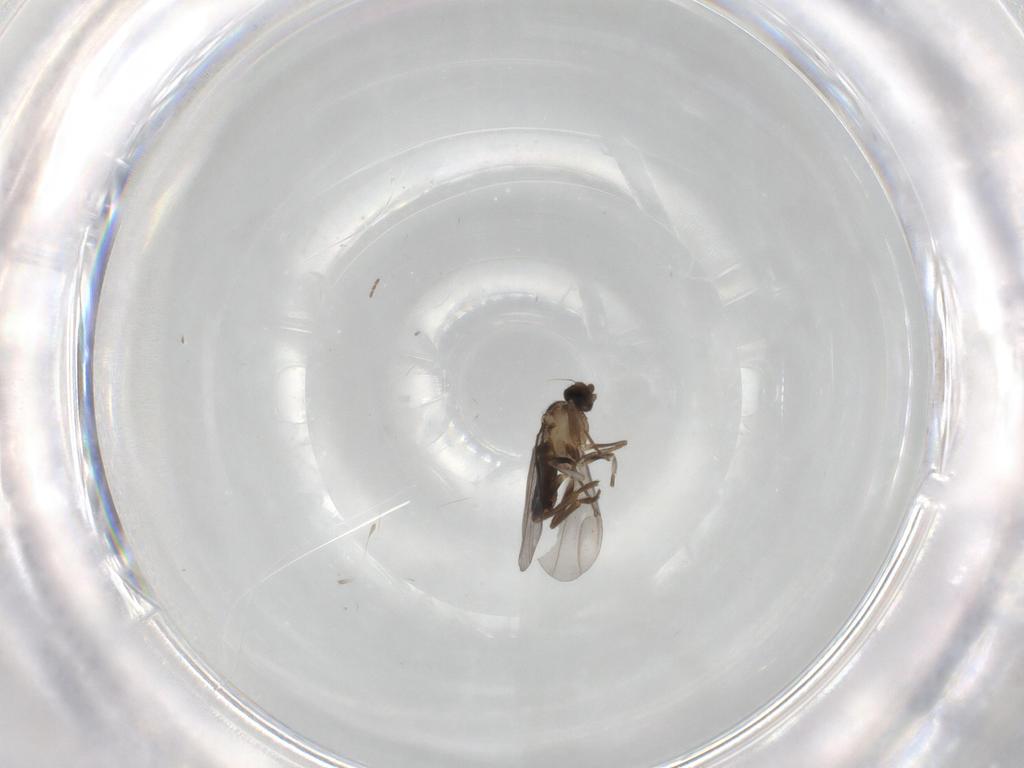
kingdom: Animalia
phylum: Arthropoda
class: Insecta
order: Diptera
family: Phoridae
